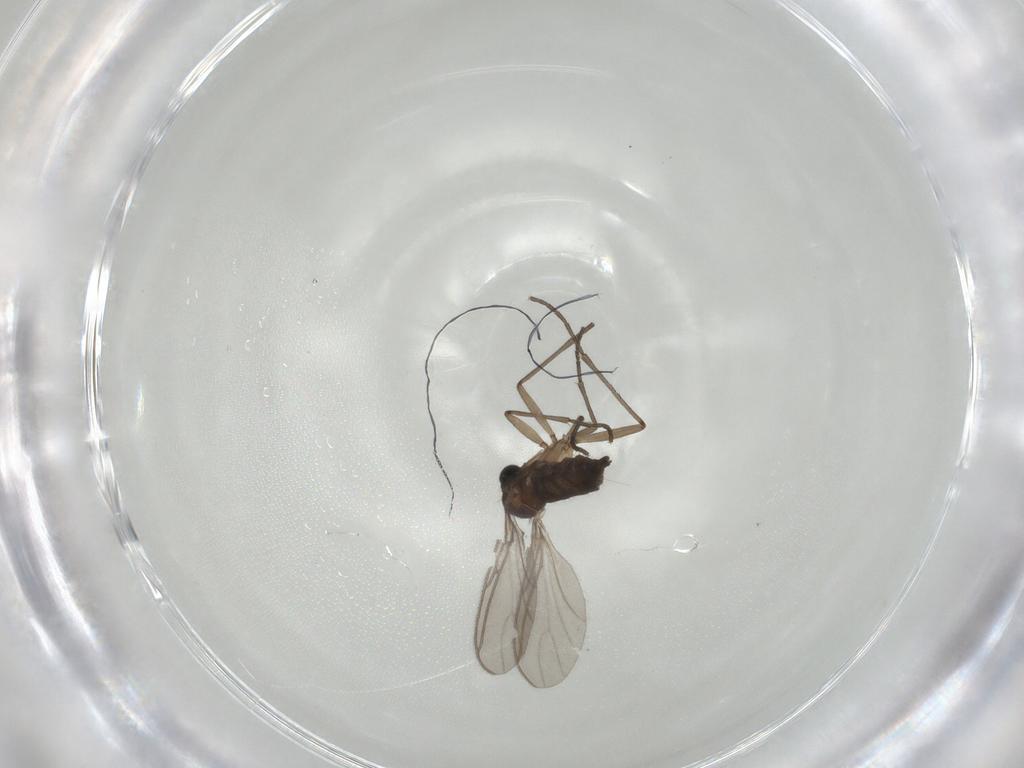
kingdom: Animalia
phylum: Arthropoda
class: Insecta
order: Diptera
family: Sciaridae
